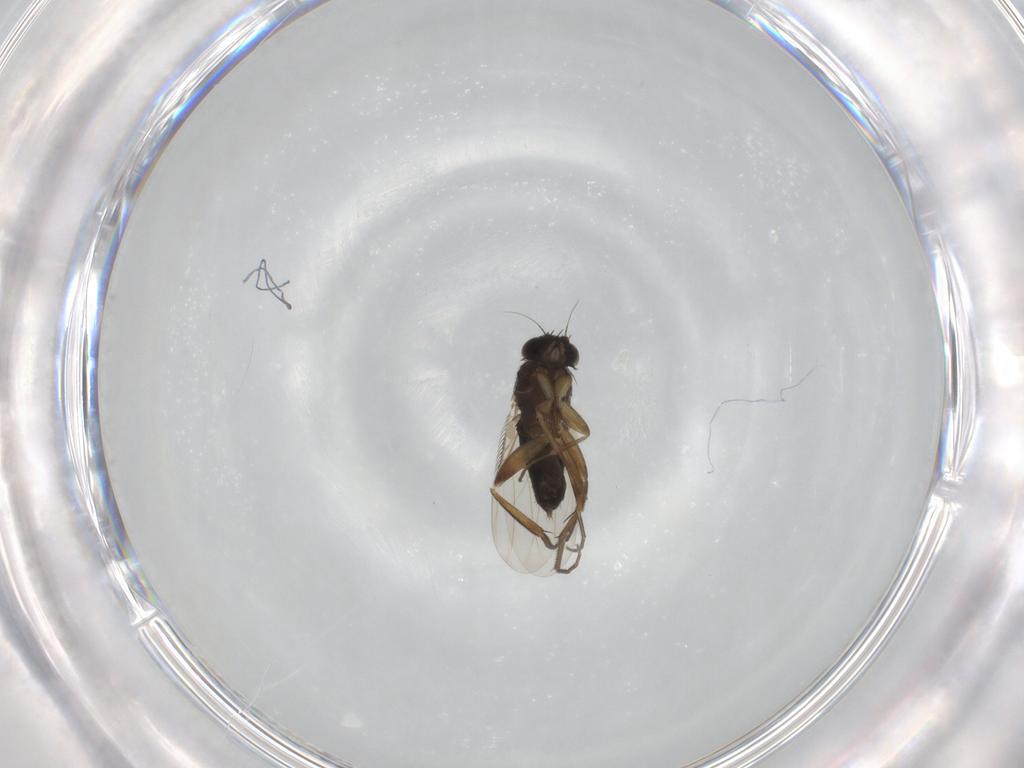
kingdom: Animalia
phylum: Arthropoda
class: Insecta
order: Diptera
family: Phoridae
